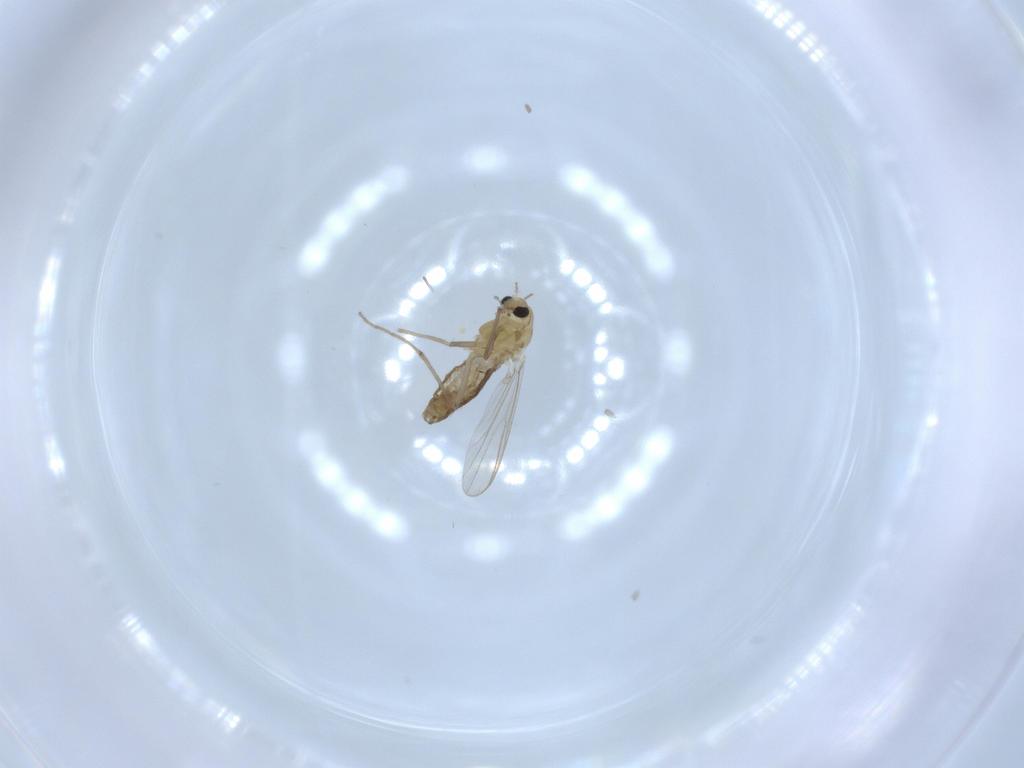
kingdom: Animalia
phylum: Arthropoda
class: Insecta
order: Diptera
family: Chironomidae
